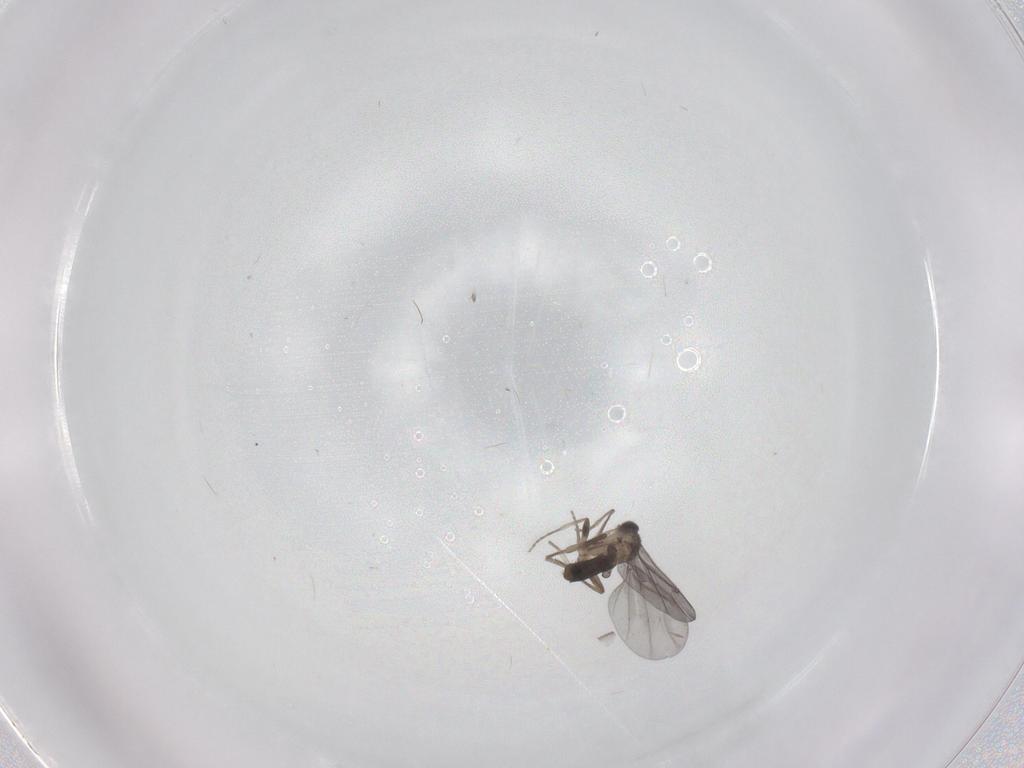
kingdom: Animalia
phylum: Arthropoda
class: Insecta
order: Diptera
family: Phoridae
